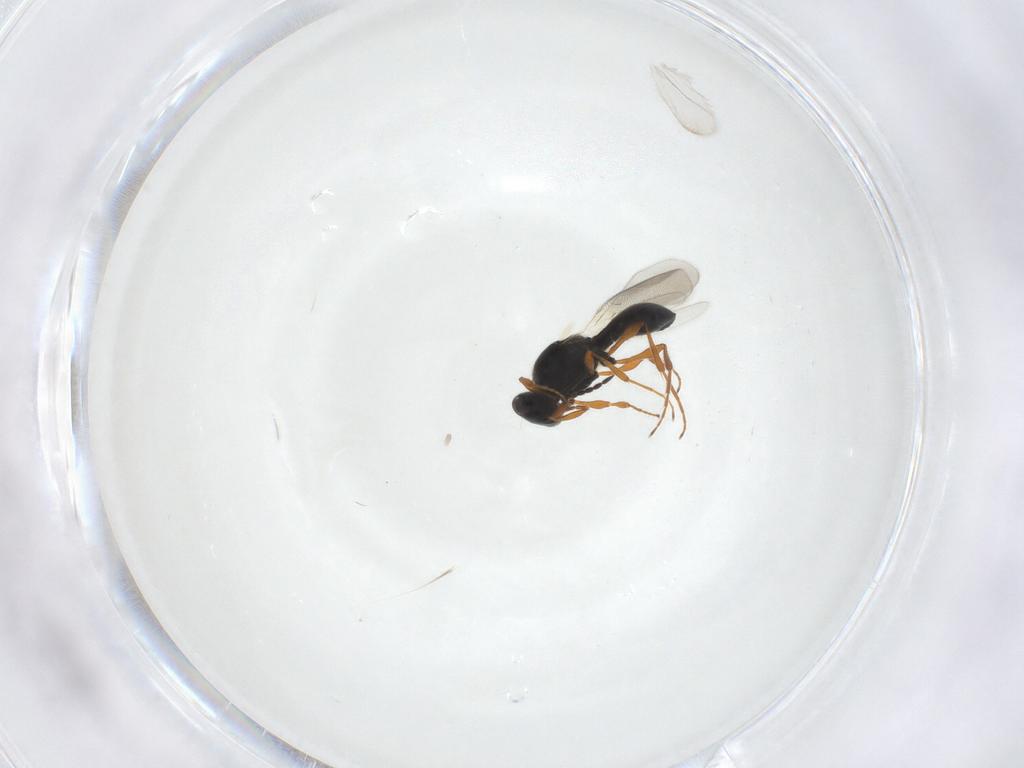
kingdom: Animalia
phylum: Arthropoda
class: Insecta
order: Hymenoptera
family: Platygastridae
